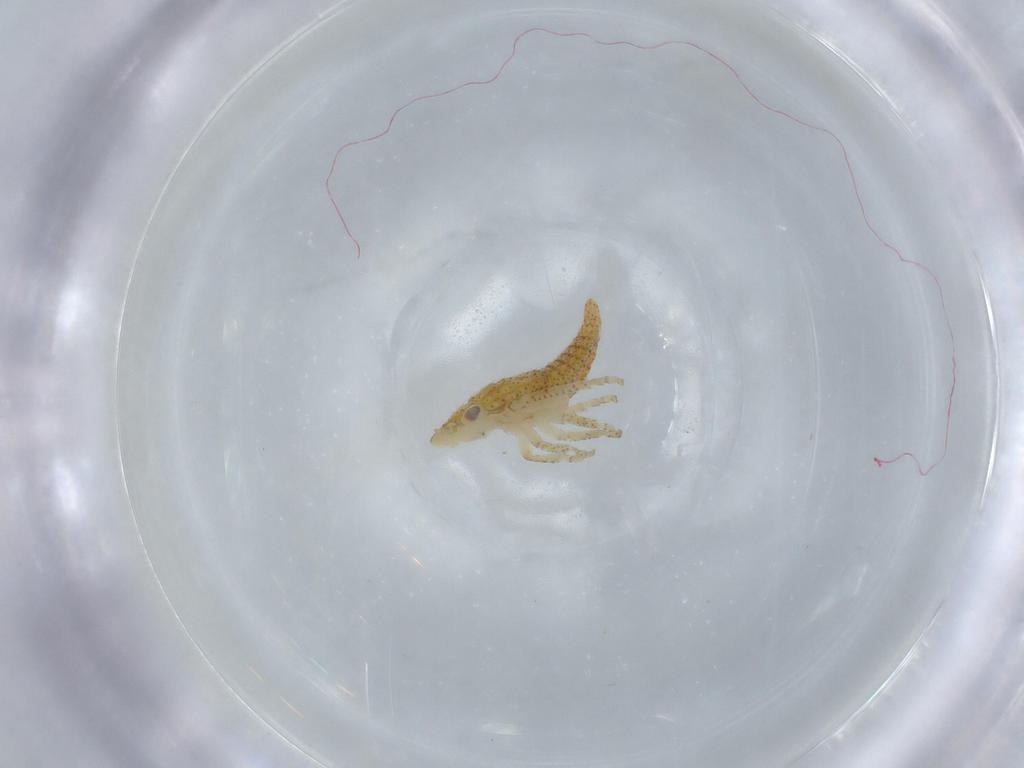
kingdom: Animalia
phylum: Arthropoda
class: Insecta
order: Hemiptera
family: Cicadellidae
